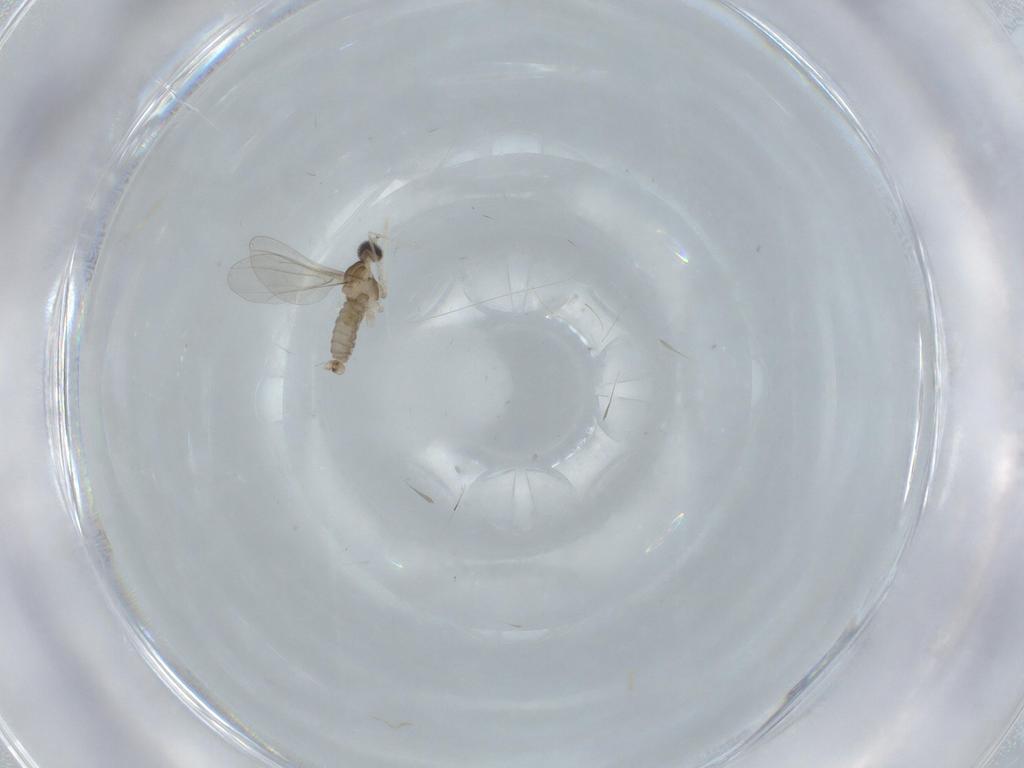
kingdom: Animalia
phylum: Arthropoda
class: Insecta
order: Diptera
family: Cecidomyiidae
